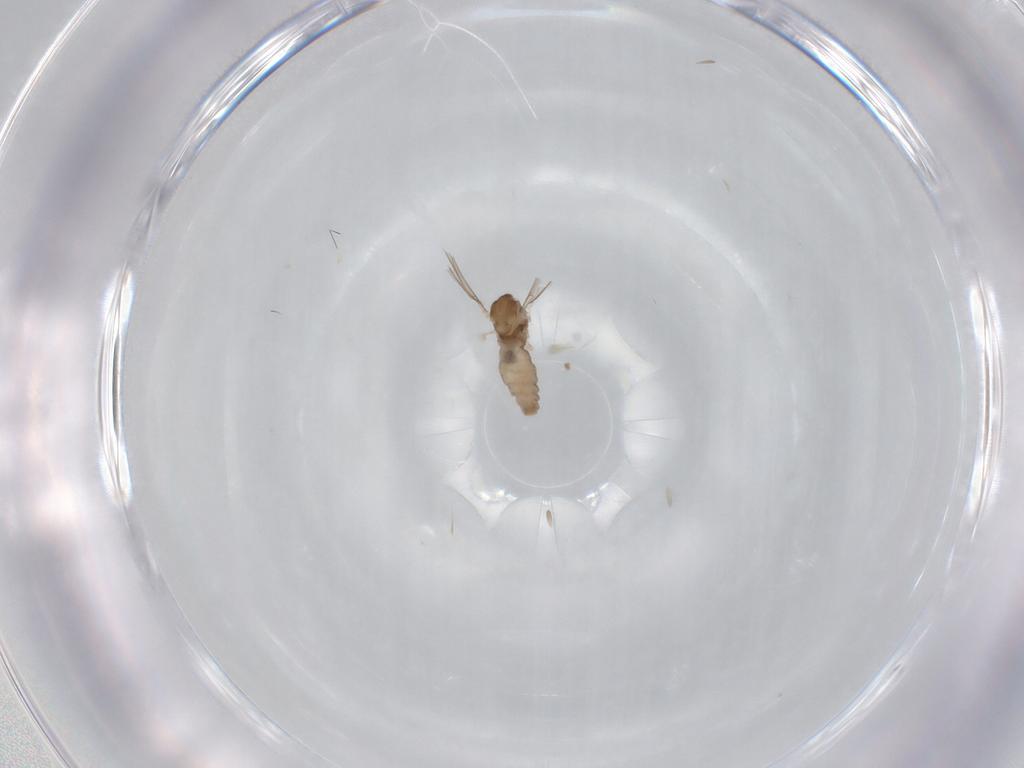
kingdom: Animalia
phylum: Arthropoda
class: Insecta
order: Diptera
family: Cecidomyiidae
